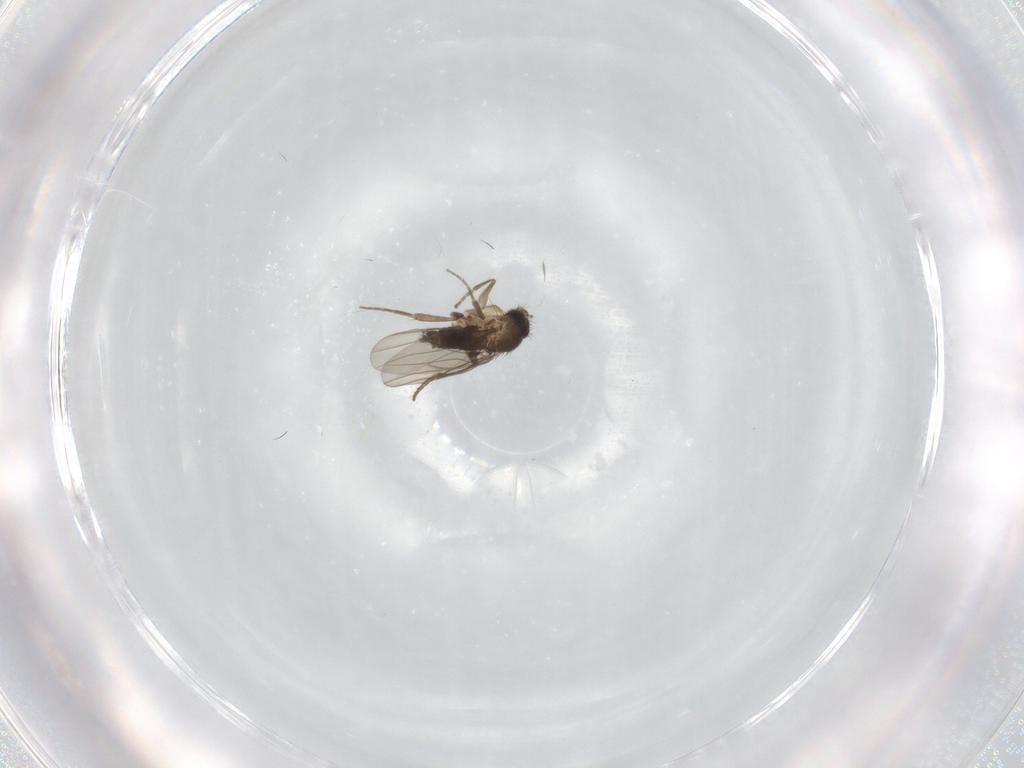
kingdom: Animalia
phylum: Arthropoda
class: Insecta
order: Diptera
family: Phoridae
